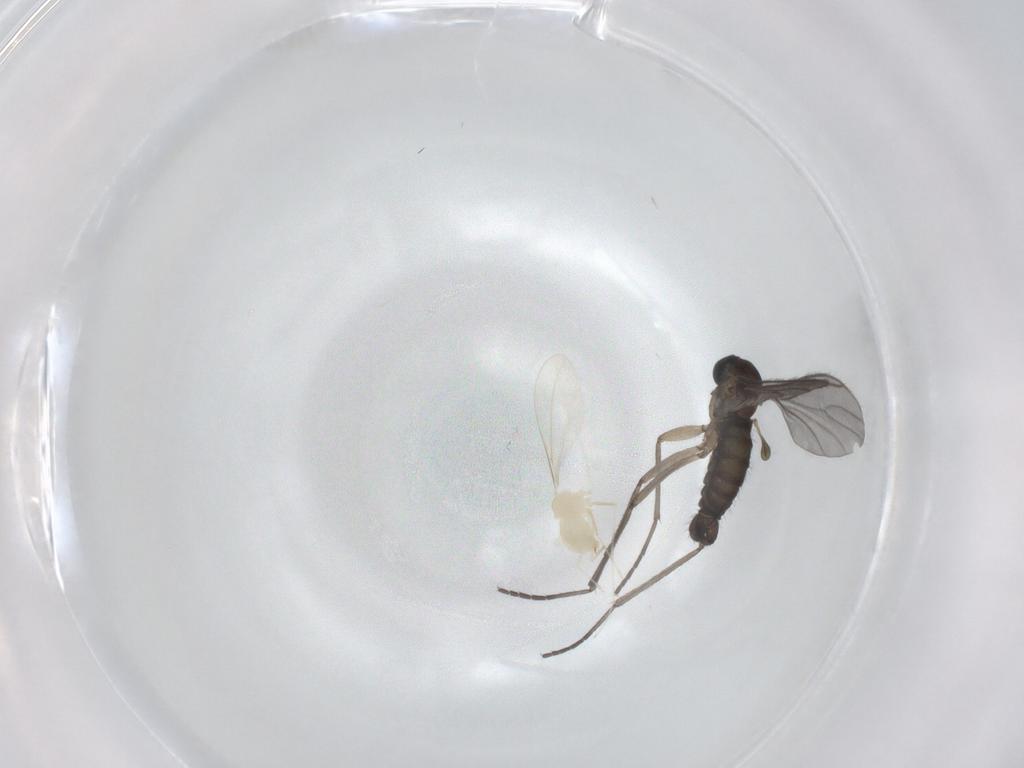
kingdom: Animalia
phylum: Arthropoda
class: Insecta
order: Diptera
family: Sciaridae
